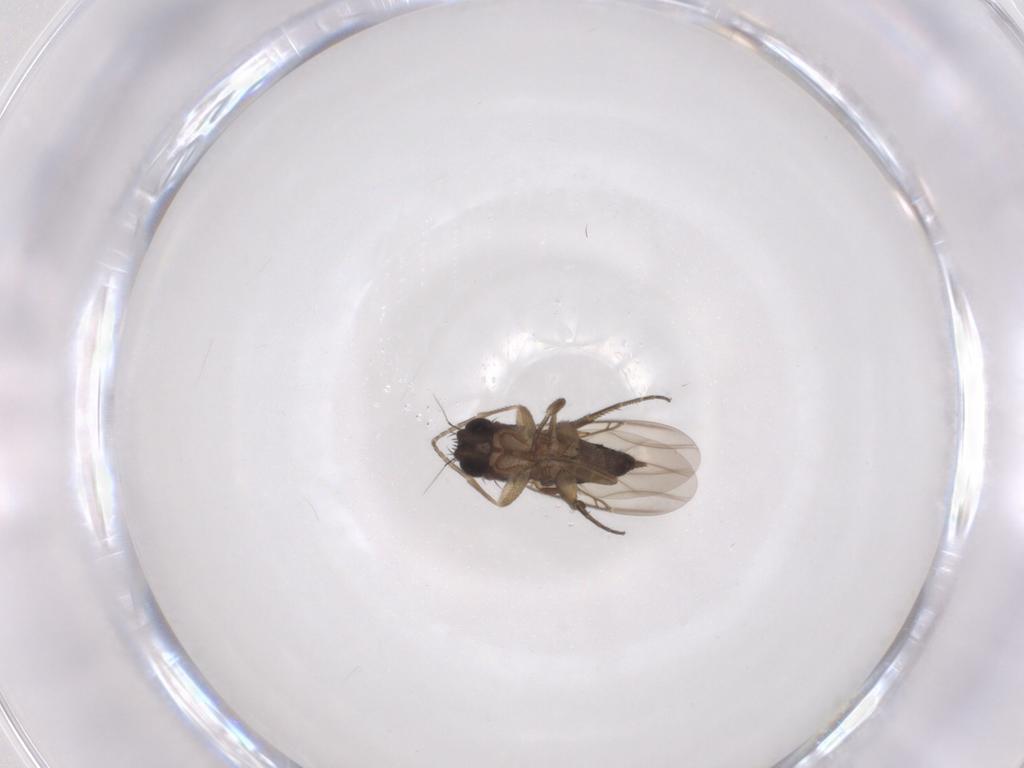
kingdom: Animalia
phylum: Arthropoda
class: Insecta
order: Diptera
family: Phoridae
